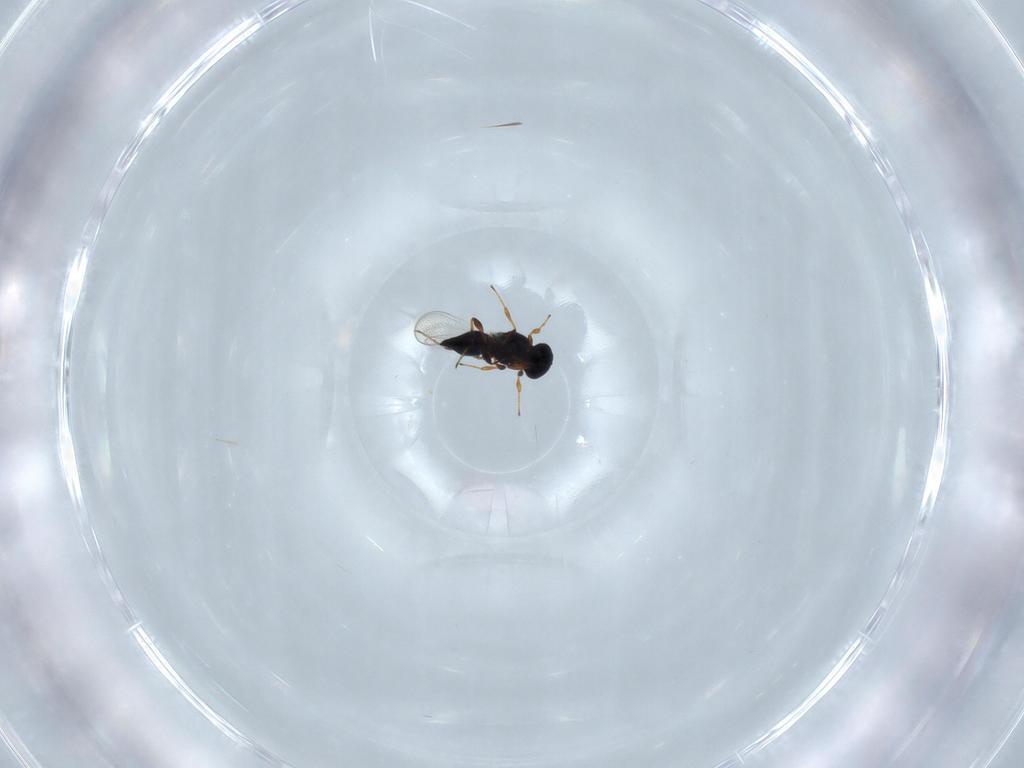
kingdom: Animalia
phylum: Arthropoda
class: Insecta
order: Hymenoptera
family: Platygastridae
